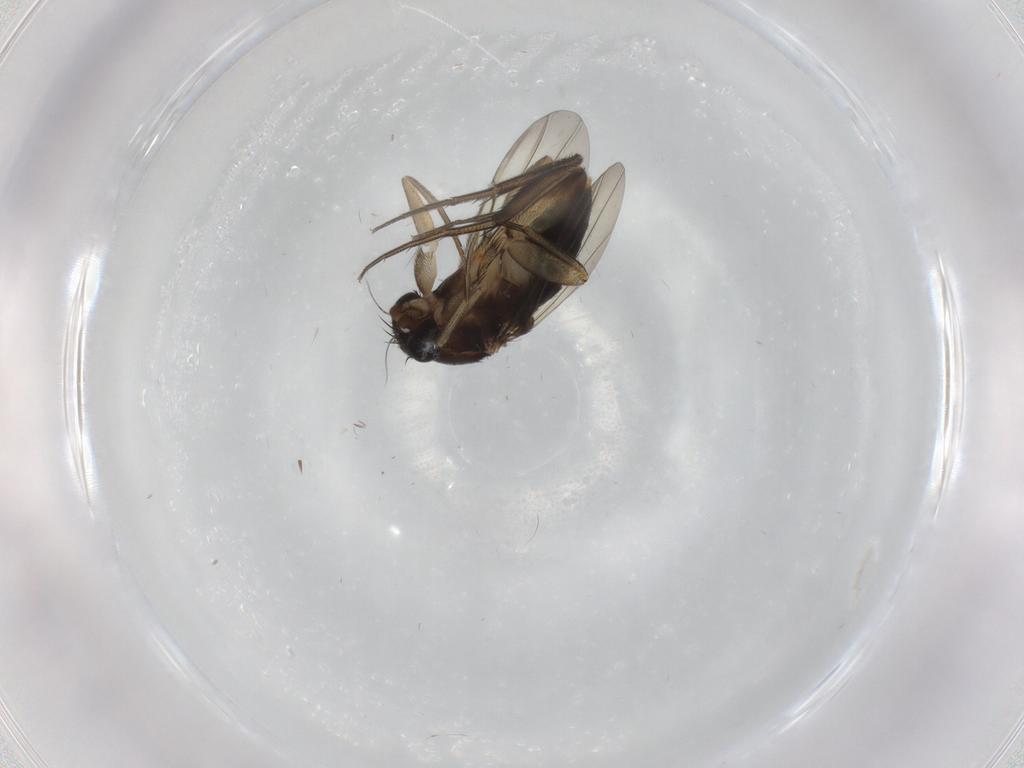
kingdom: Animalia
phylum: Arthropoda
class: Insecta
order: Diptera
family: Phoridae
